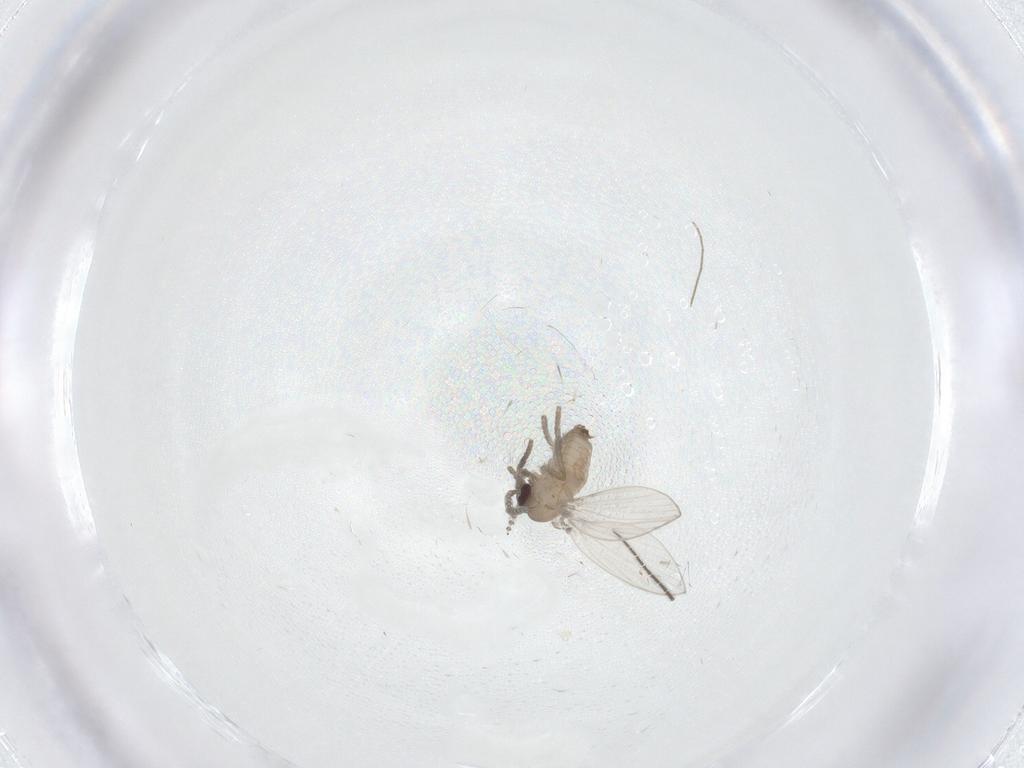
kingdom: Animalia
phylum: Arthropoda
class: Insecta
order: Diptera
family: Psychodidae
